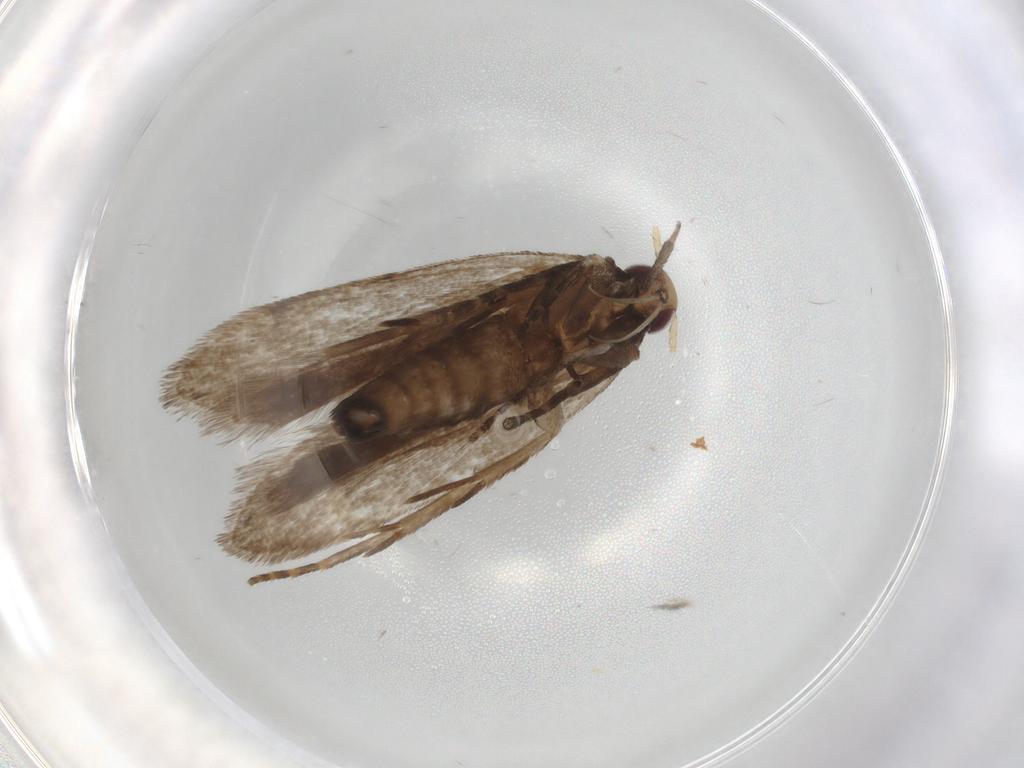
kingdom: Animalia
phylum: Arthropoda
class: Insecta
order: Lepidoptera
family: Gelechiidae
